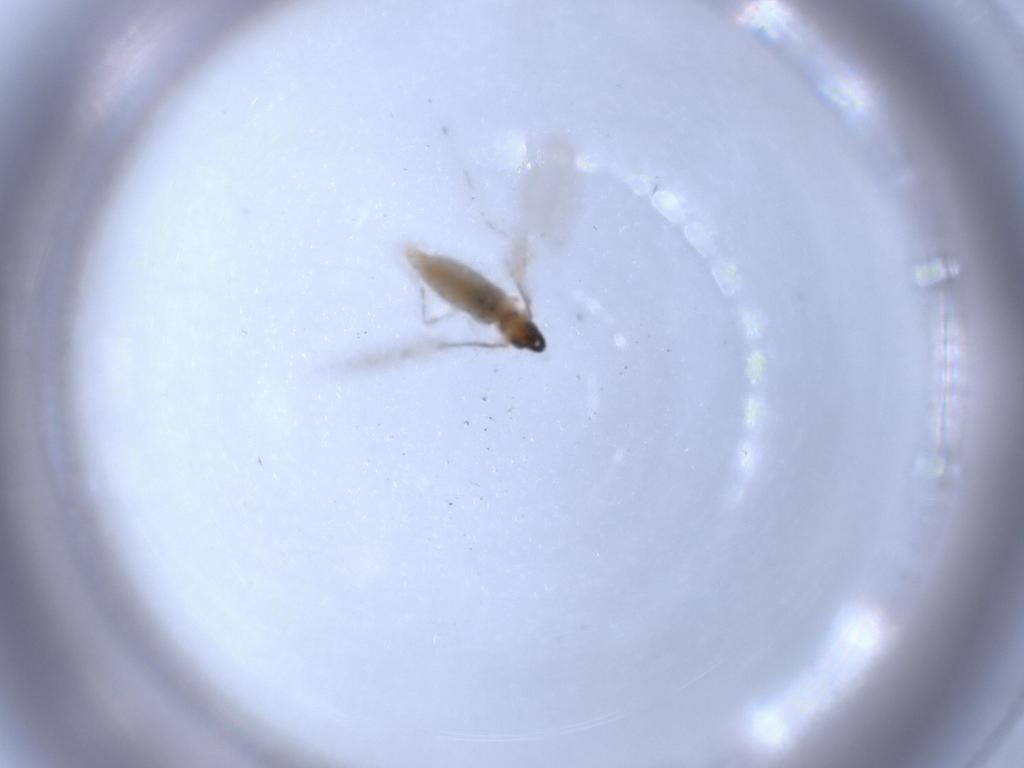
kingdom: Animalia
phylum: Arthropoda
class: Insecta
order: Diptera
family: Cecidomyiidae
